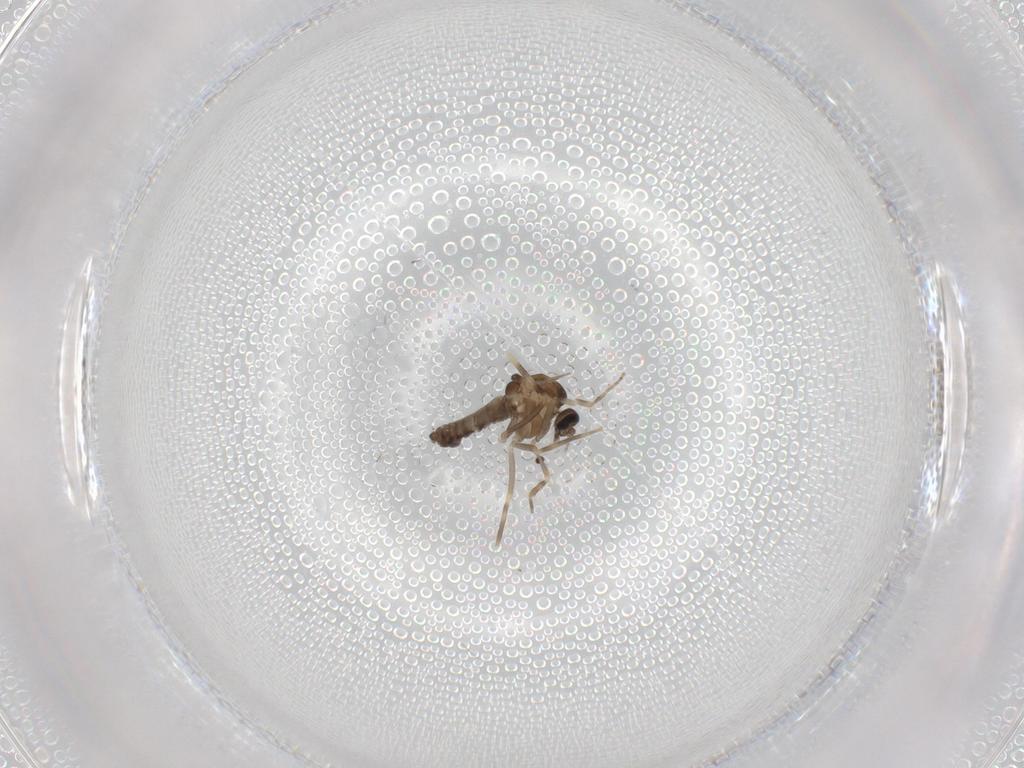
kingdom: Animalia
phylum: Arthropoda
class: Insecta
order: Diptera
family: Ceratopogonidae
